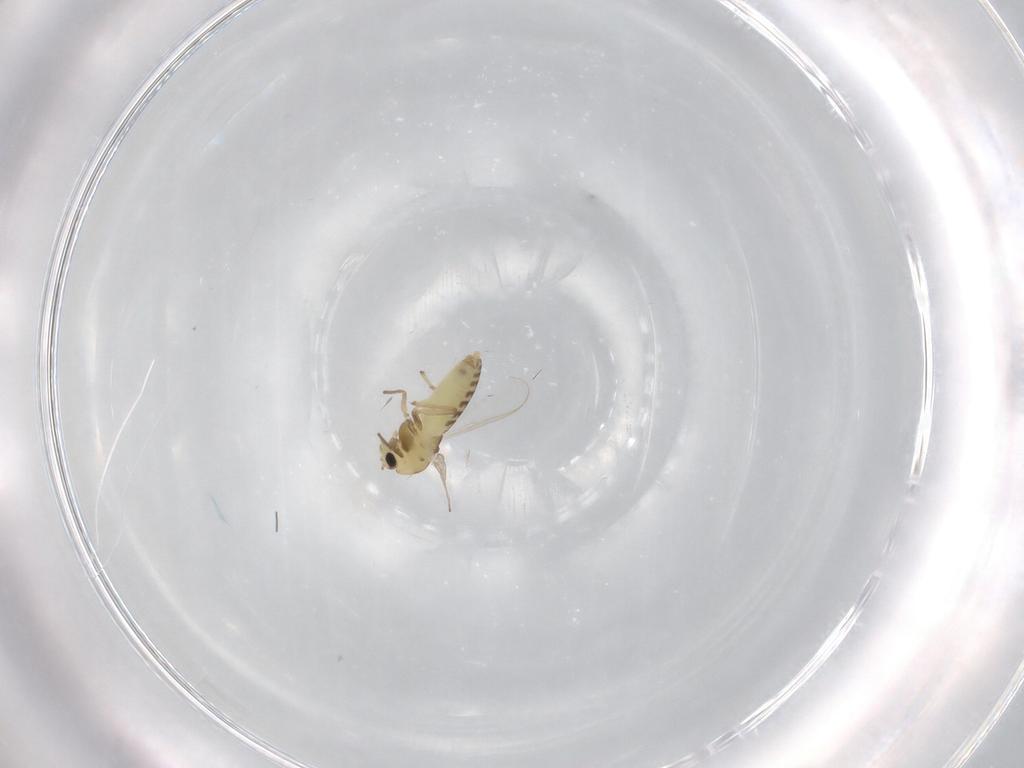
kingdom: Animalia
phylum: Arthropoda
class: Insecta
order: Diptera
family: Chironomidae
